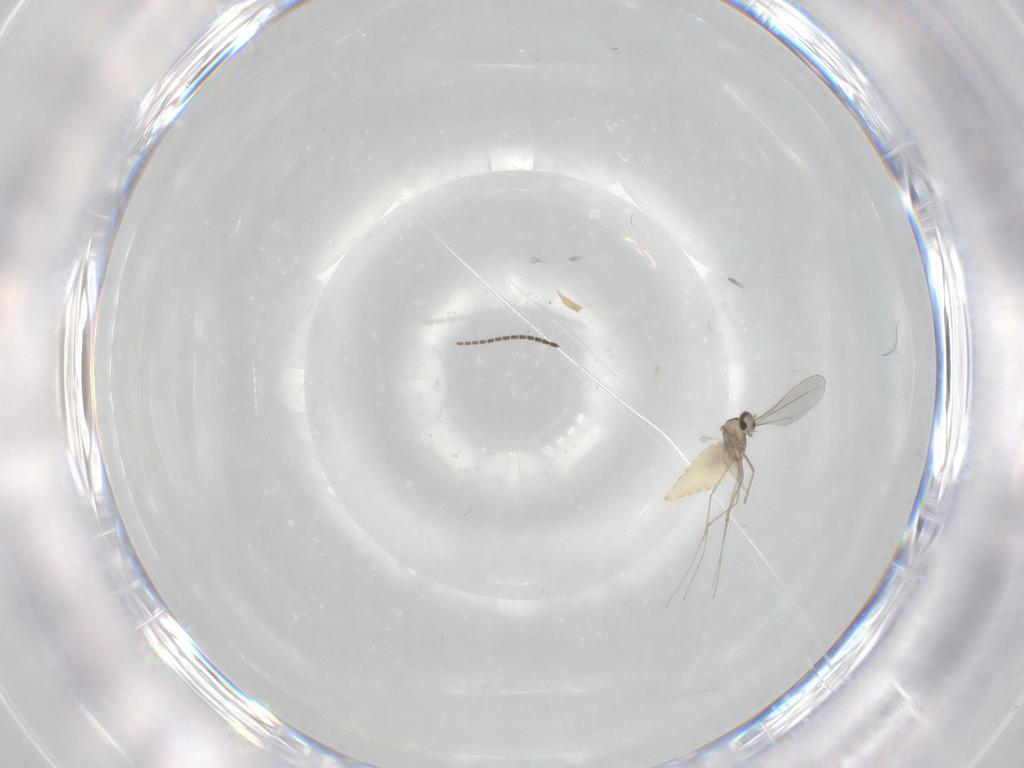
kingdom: Animalia
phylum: Arthropoda
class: Insecta
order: Diptera
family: Cecidomyiidae
